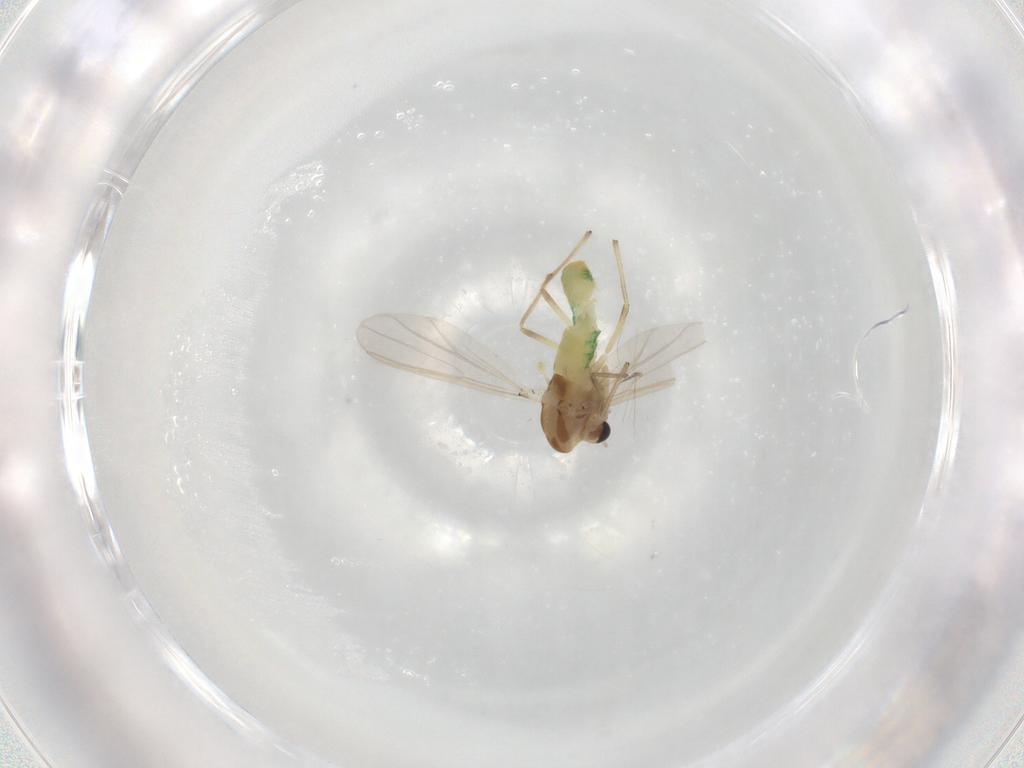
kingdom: Animalia
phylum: Arthropoda
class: Insecta
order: Diptera
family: Chironomidae
